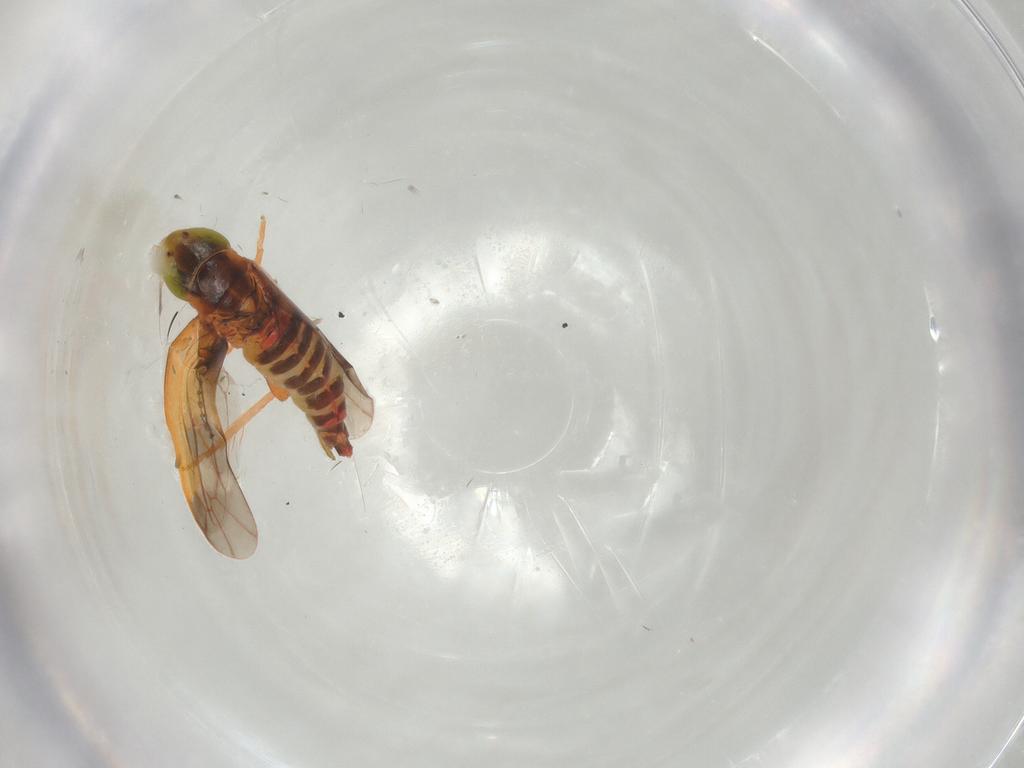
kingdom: Animalia
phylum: Arthropoda
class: Insecta
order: Hemiptera
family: Cicadellidae
